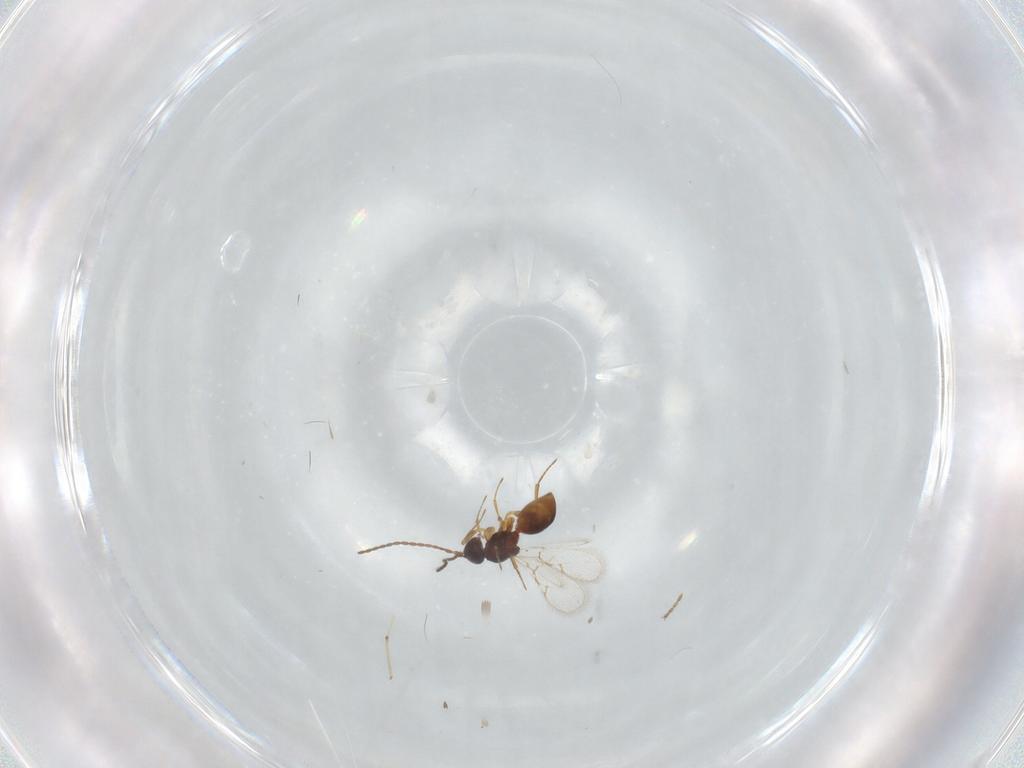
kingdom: Animalia
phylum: Arthropoda
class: Insecta
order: Hymenoptera
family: Figitidae
